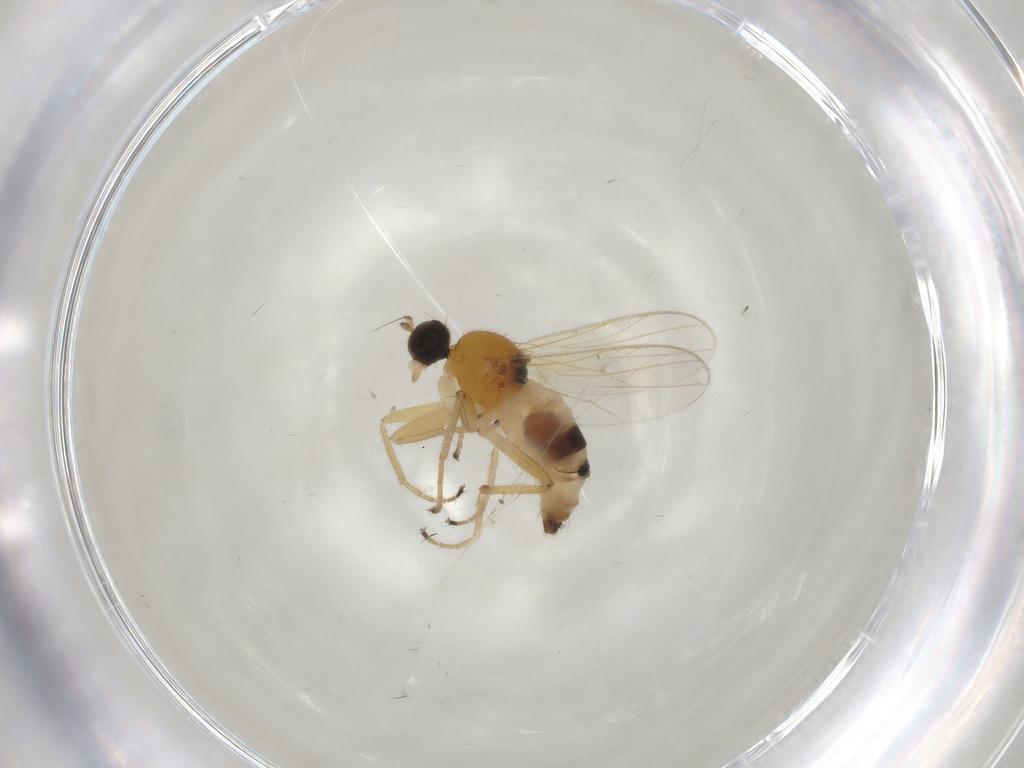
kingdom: Animalia
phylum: Arthropoda
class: Insecta
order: Diptera
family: Hybotidae
